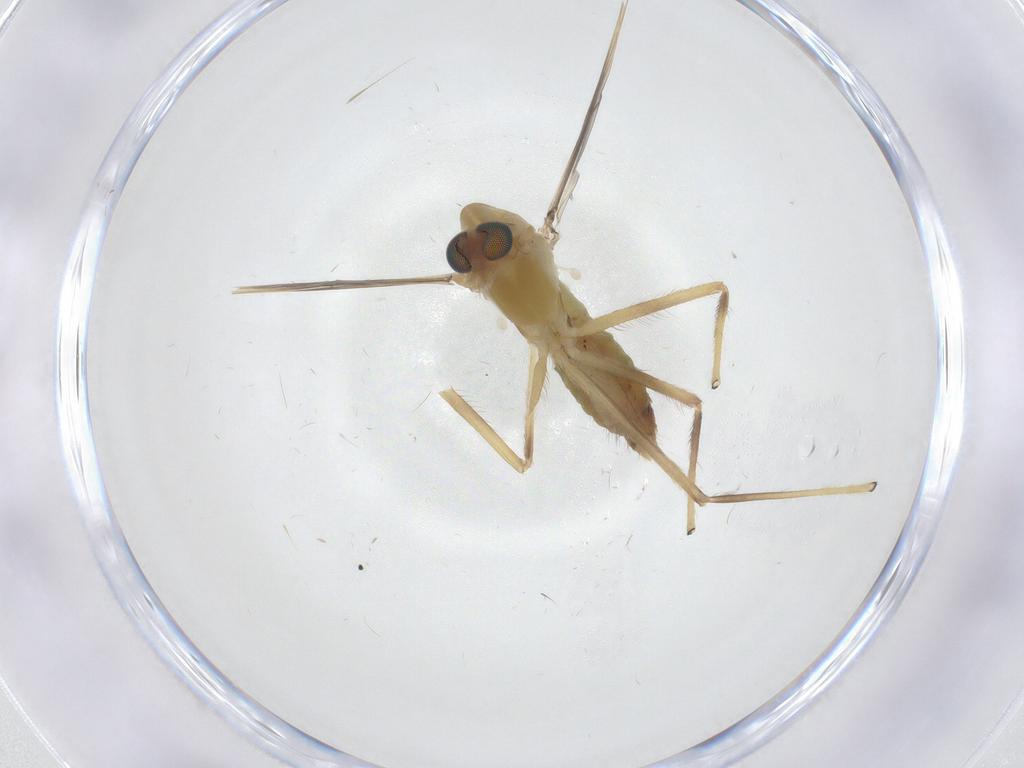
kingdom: Animalia
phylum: Arthropoda
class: Insecta
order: Diptera
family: Chironomidae
